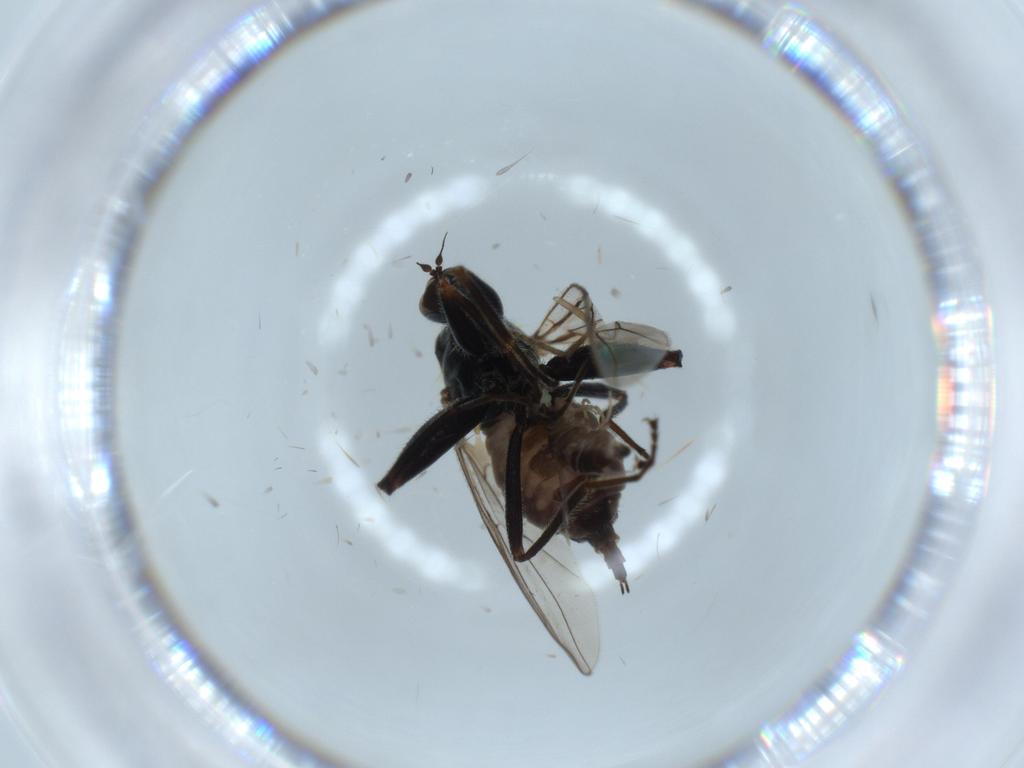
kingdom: Animalia
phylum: Arthropoda
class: Insecta
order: Diptera
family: Hybotidae
